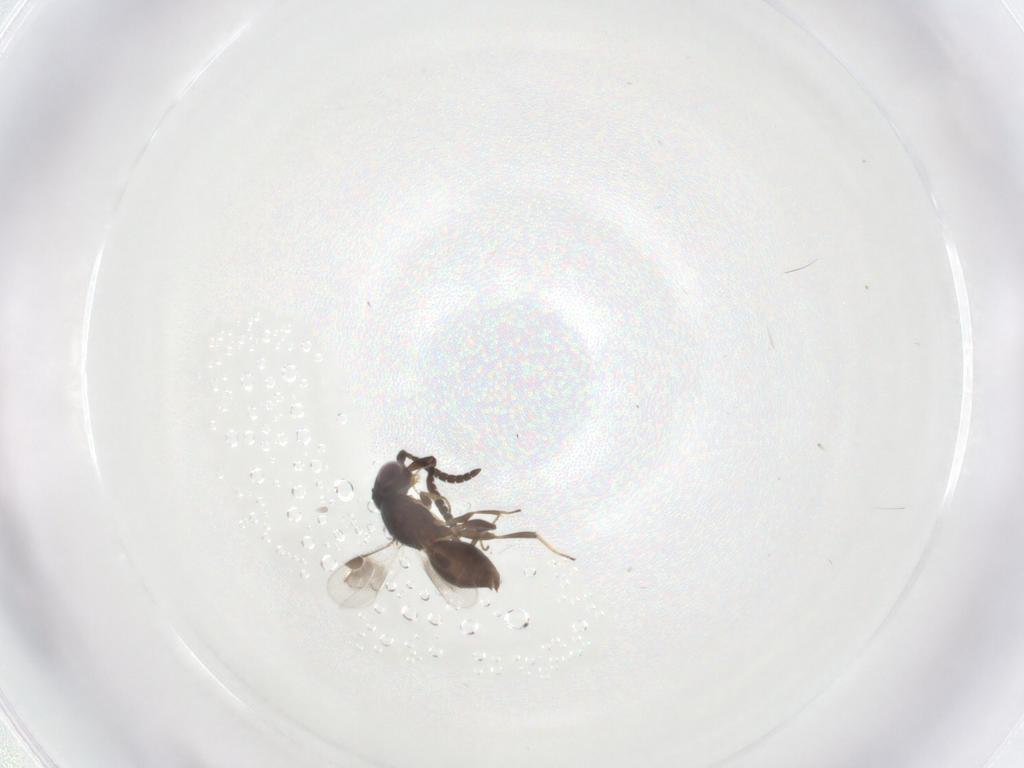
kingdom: Animalia
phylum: Arthropoda
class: Insecta
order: Hymenoptera
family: Megaspilidae
